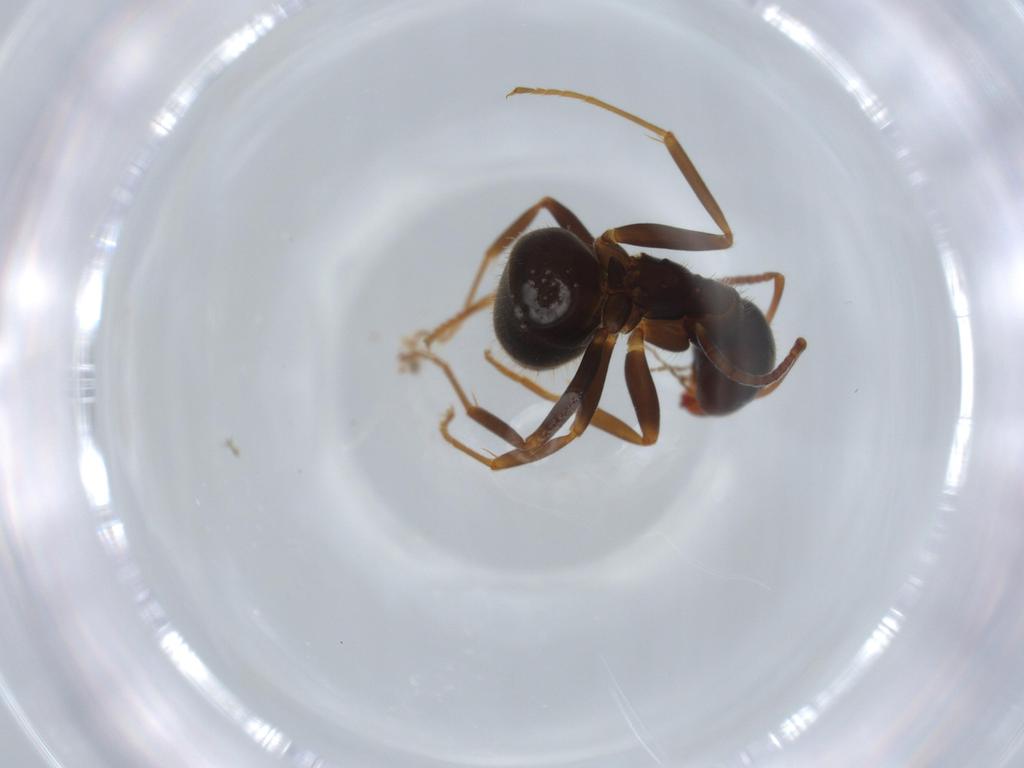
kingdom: Animalia
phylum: Arthropoda
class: Insecta
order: Hymenoptera
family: Formicidae
